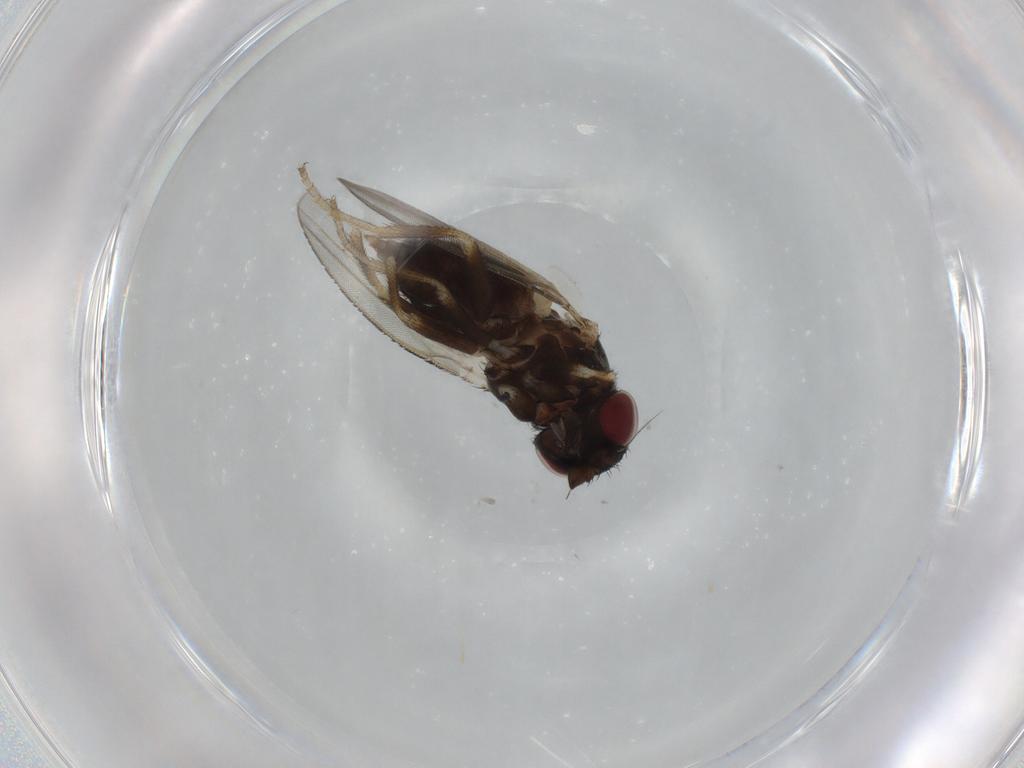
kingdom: Animalia
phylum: Arthropoda
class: Insecta
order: Diptera
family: Milichiidae
